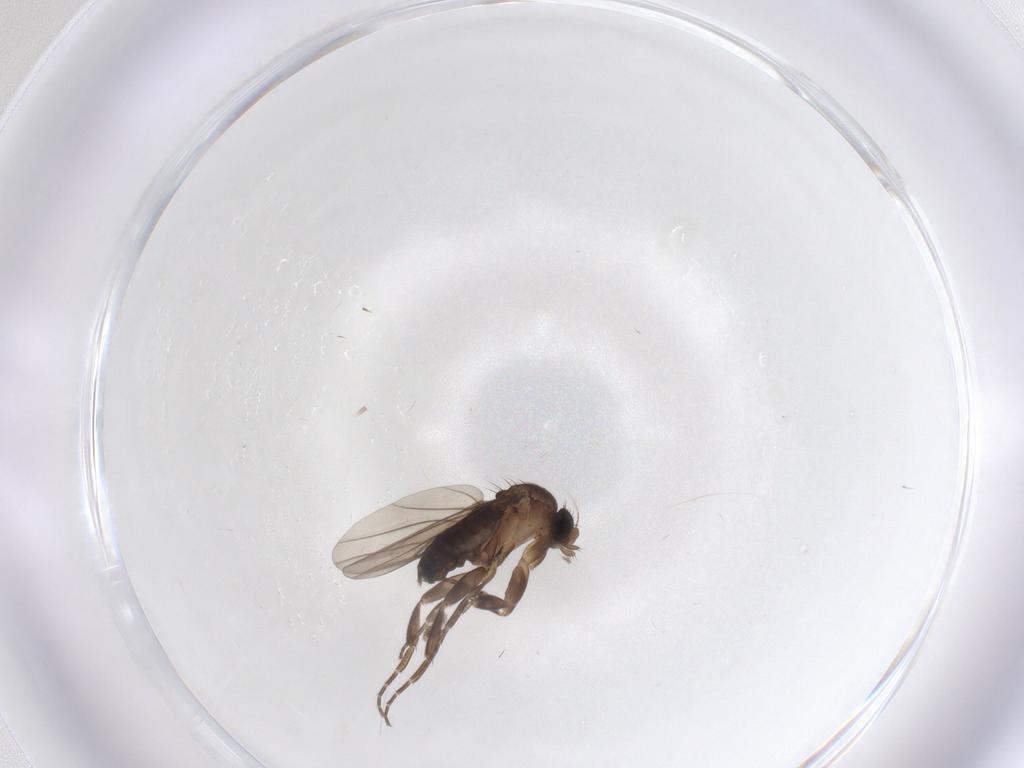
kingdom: Animalia
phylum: Arthropoda
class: Insecta
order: Diptera
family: Phoridae
